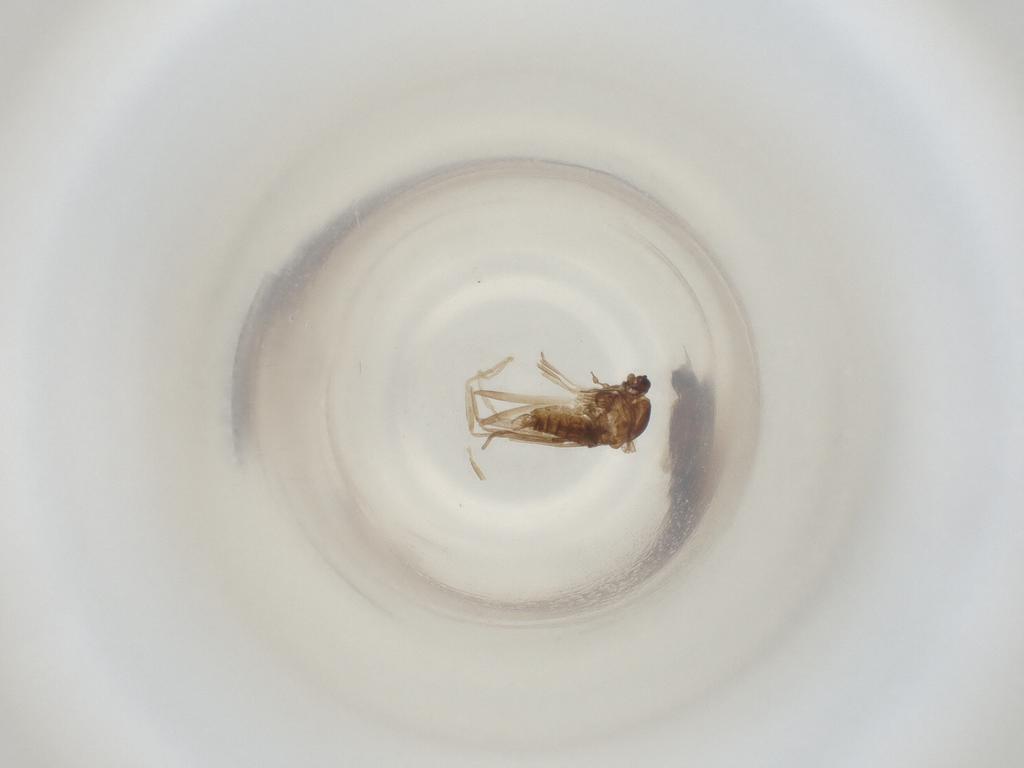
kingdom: Animalia
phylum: Arthropoda
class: Insecta
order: Diptera
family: Cecidomyiidae
